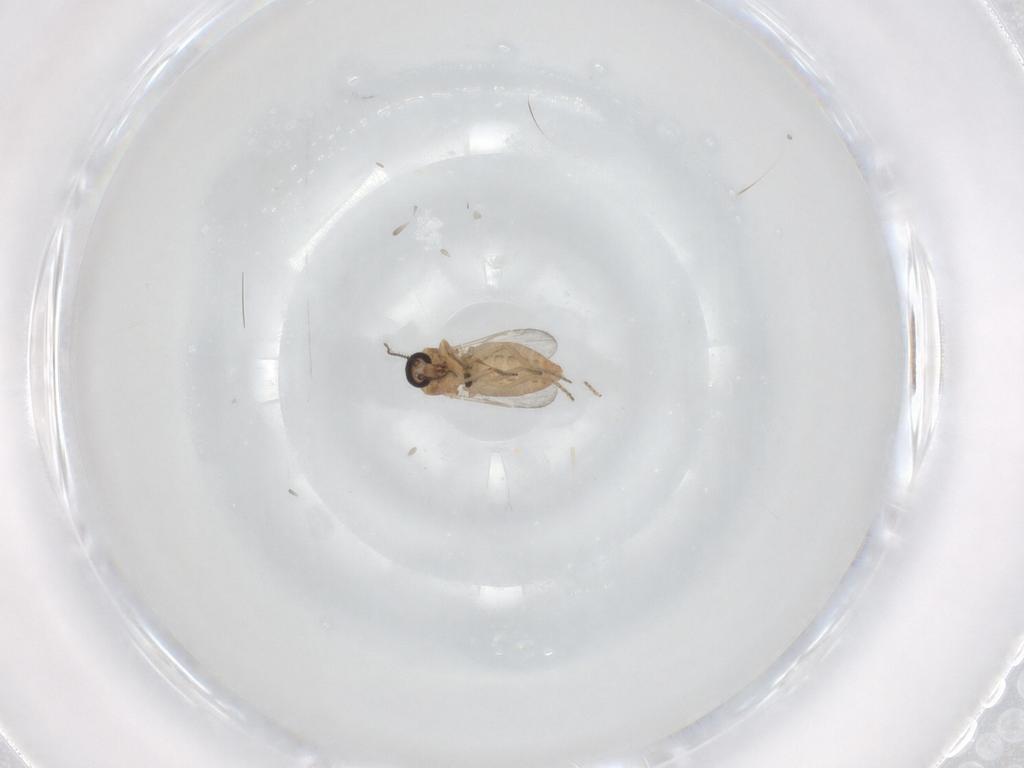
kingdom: Animalia
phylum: Arthropoda
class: Insecta
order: Diptera
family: Ceratopogonidae
